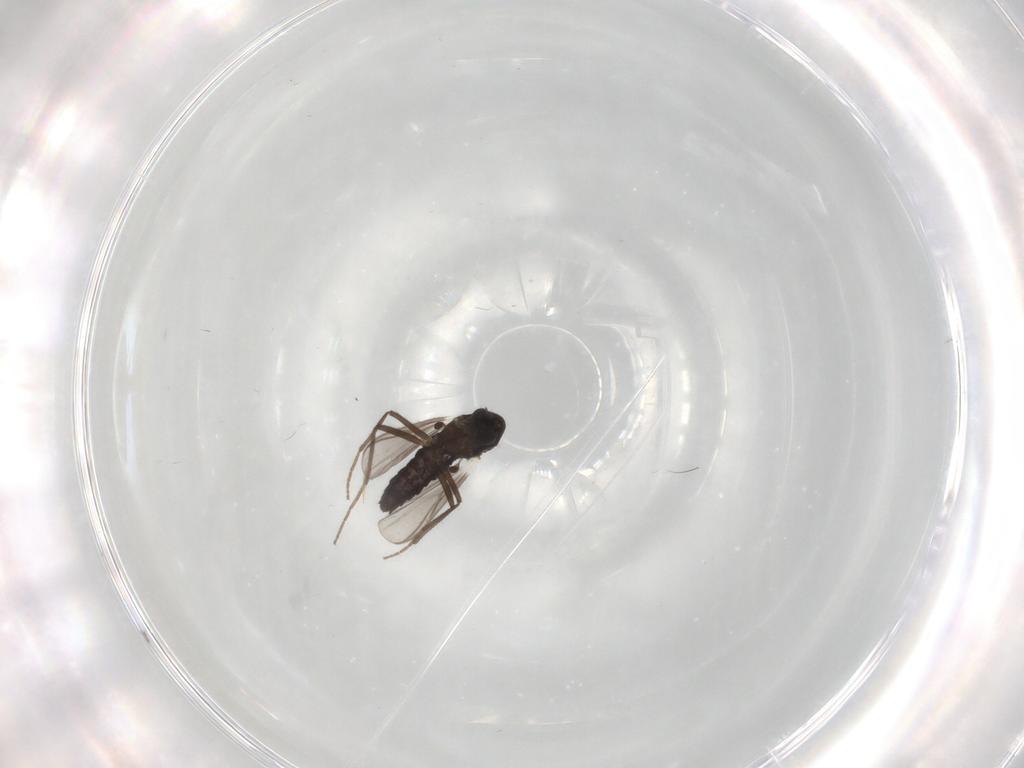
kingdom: Animalia
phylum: Arthropoda
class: Insecta
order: Diptera
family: Chironomidae
